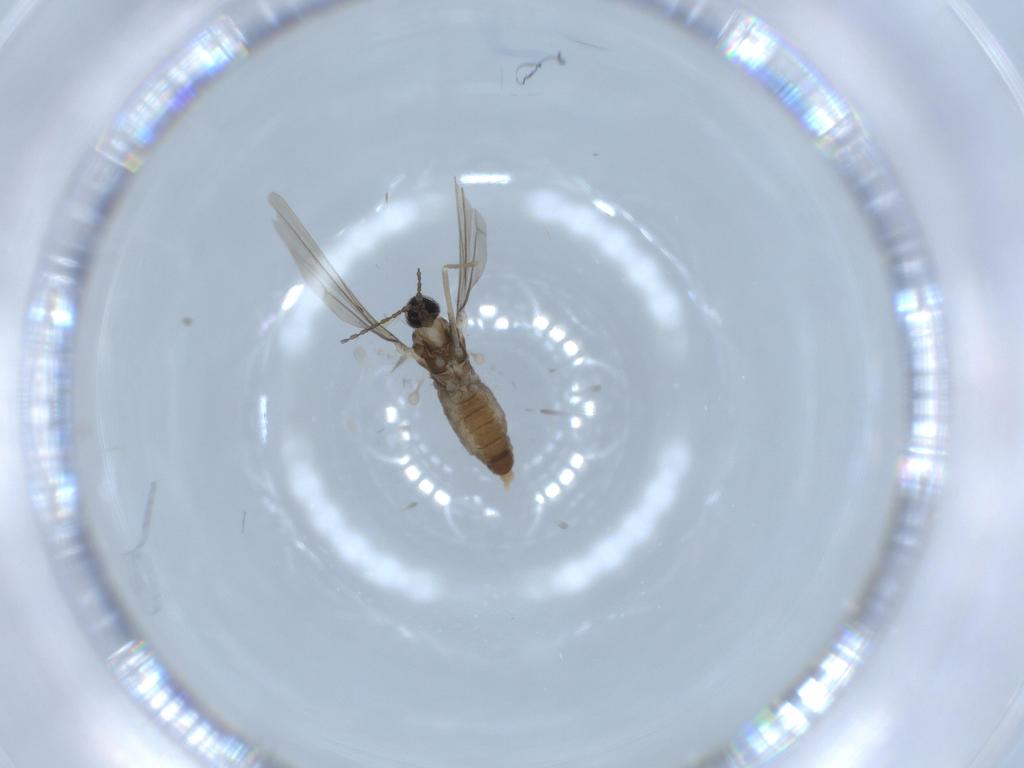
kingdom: Animalia
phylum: Arthropoda
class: Insecta
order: Diptera
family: Cecidomyiidae
